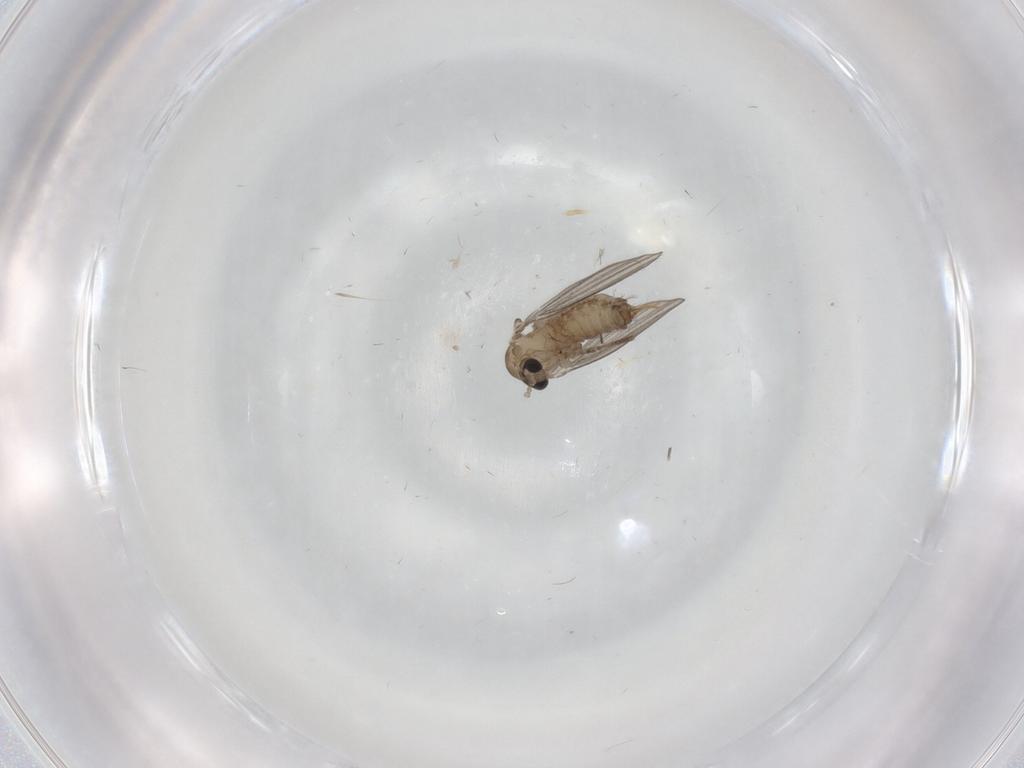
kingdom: Animalia
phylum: Arthropoda
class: Insecta
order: Diptera
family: Psychodidae
